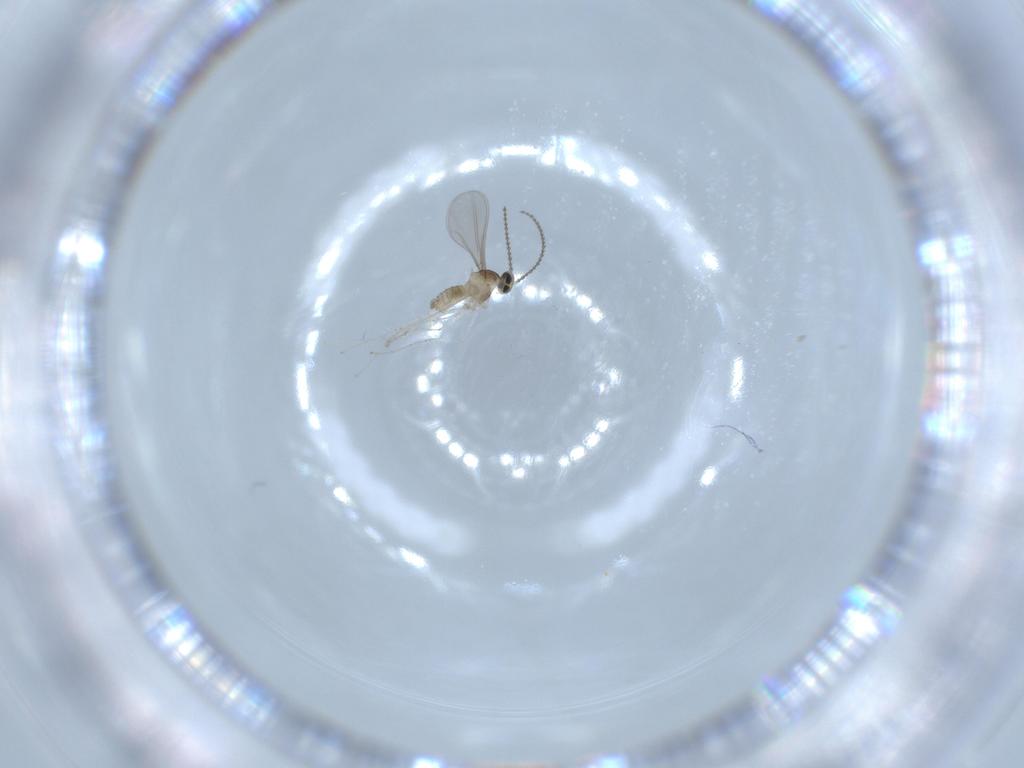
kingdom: Animalia
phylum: Arthropoda
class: Insecta
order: Diptera
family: Cecidomyiidae
